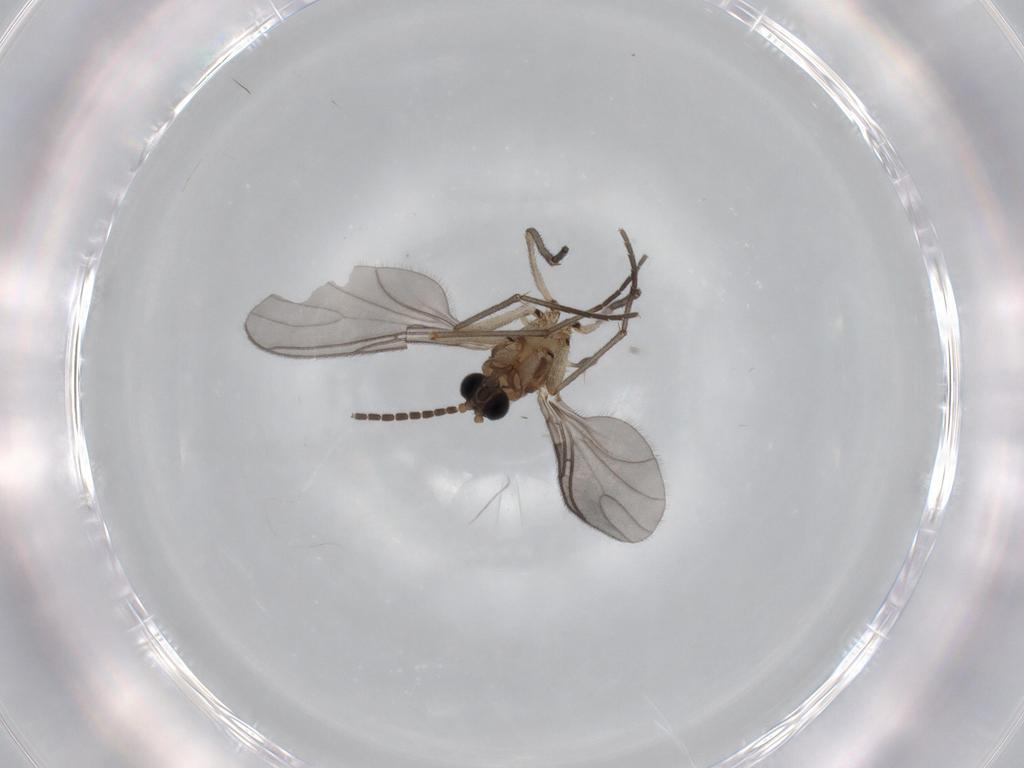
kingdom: Animalia
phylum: Arthropoda
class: Insecta
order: Diptera
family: Sciaridae
